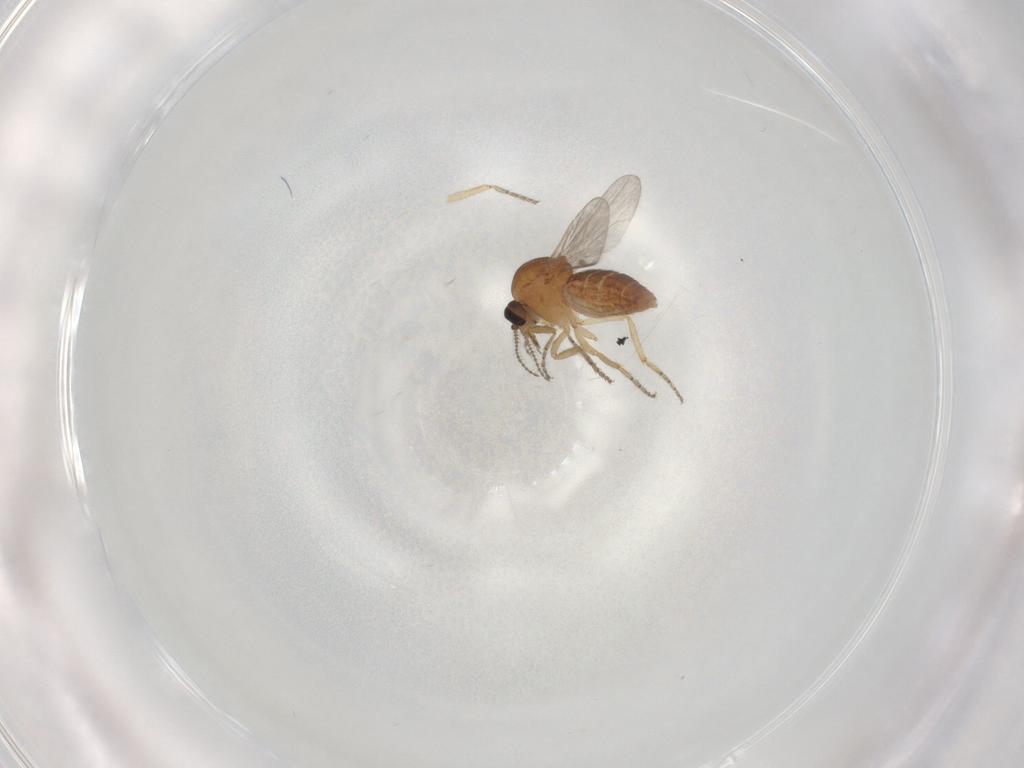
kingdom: Animalia
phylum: Arthropoda
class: Insecta
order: Diptera
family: Ceratopogonidae
